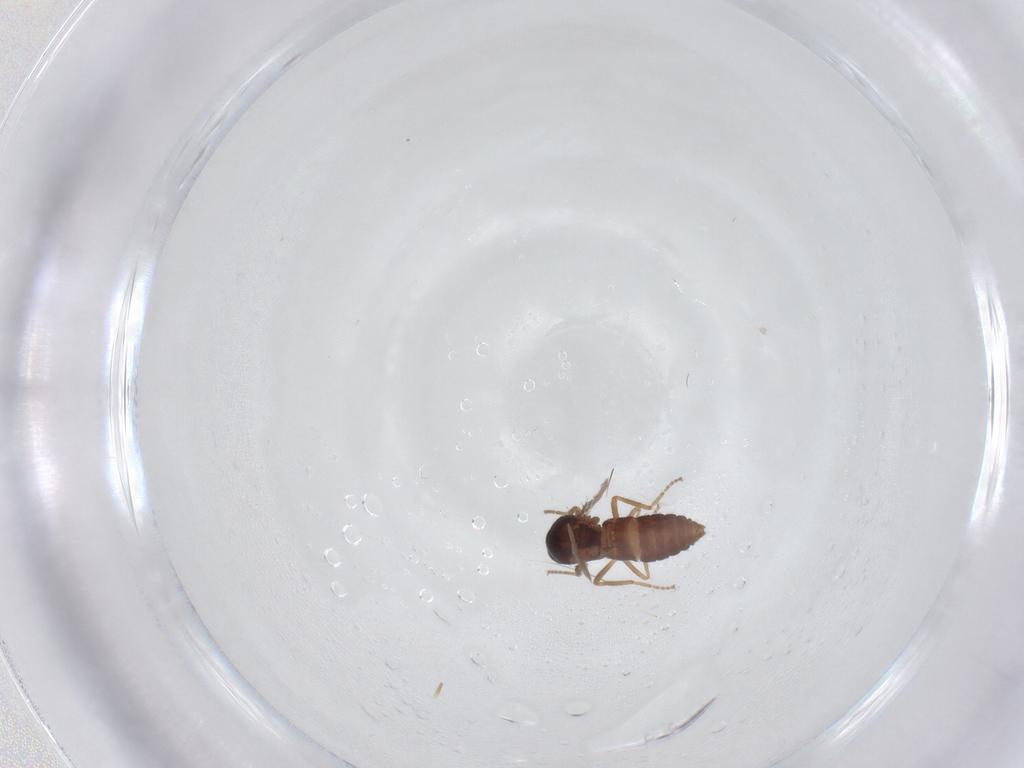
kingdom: Animalia
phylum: Arthropoda
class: Insecta
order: Diptera
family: Ceratopogonidae
